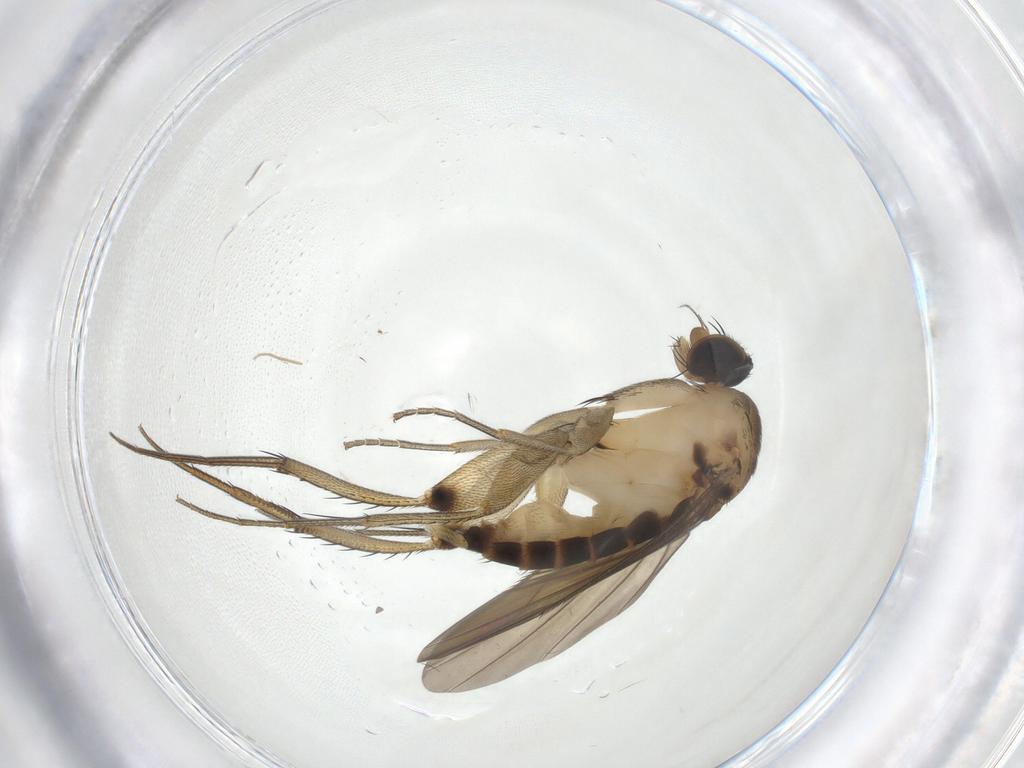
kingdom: Animalia
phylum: Arthropoda
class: Insecta
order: Diptera
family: Phoridae
